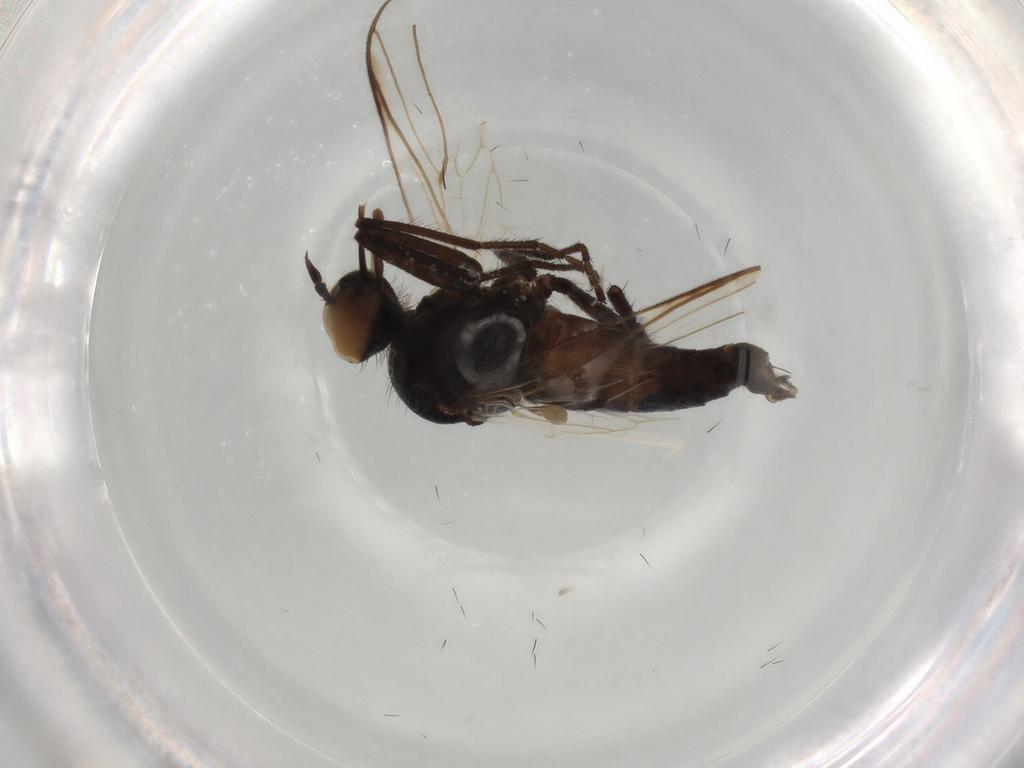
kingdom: Animalia
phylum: Arthropoda
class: Insecta
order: Diptera
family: Empididae
